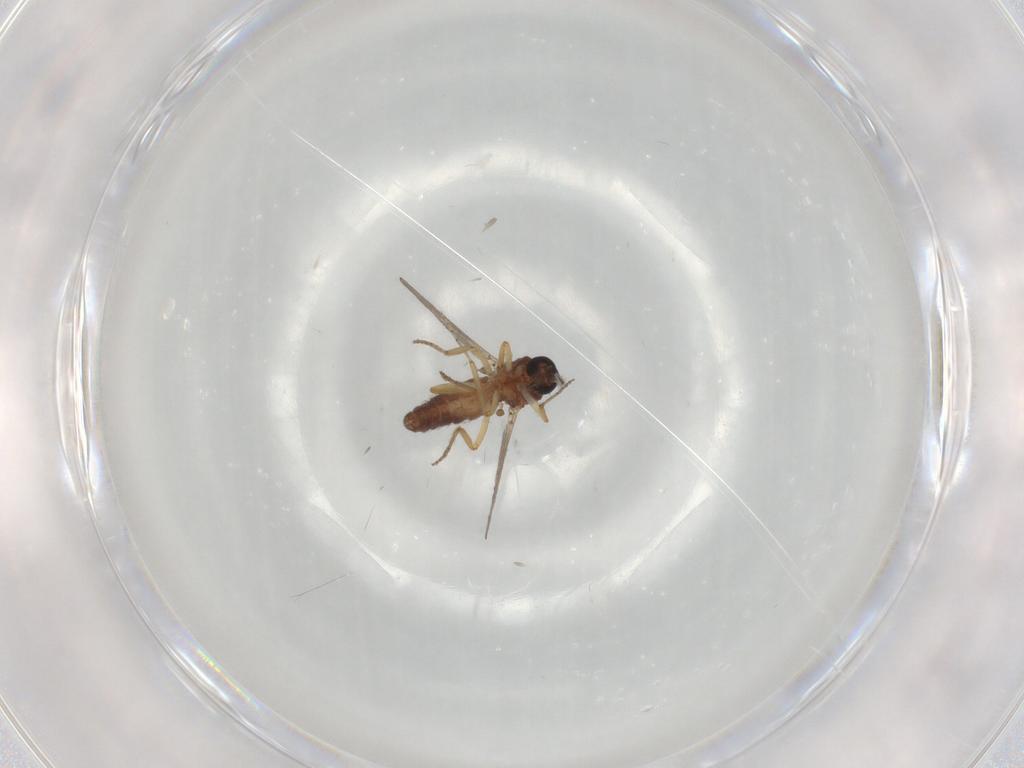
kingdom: Animalia
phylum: Arthropoda
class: Insecta
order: Diptera
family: Ceratopogonidae
